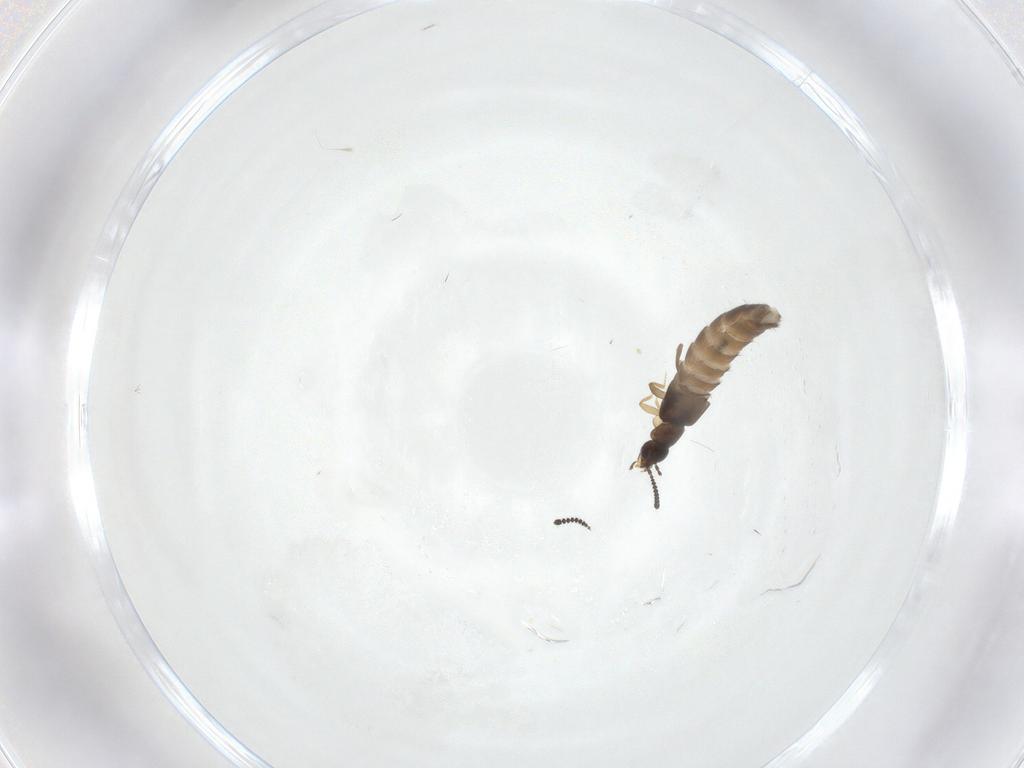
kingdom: Animalia
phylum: Arthropoda
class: Insecta
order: Coleoptera
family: Staphylinidae
